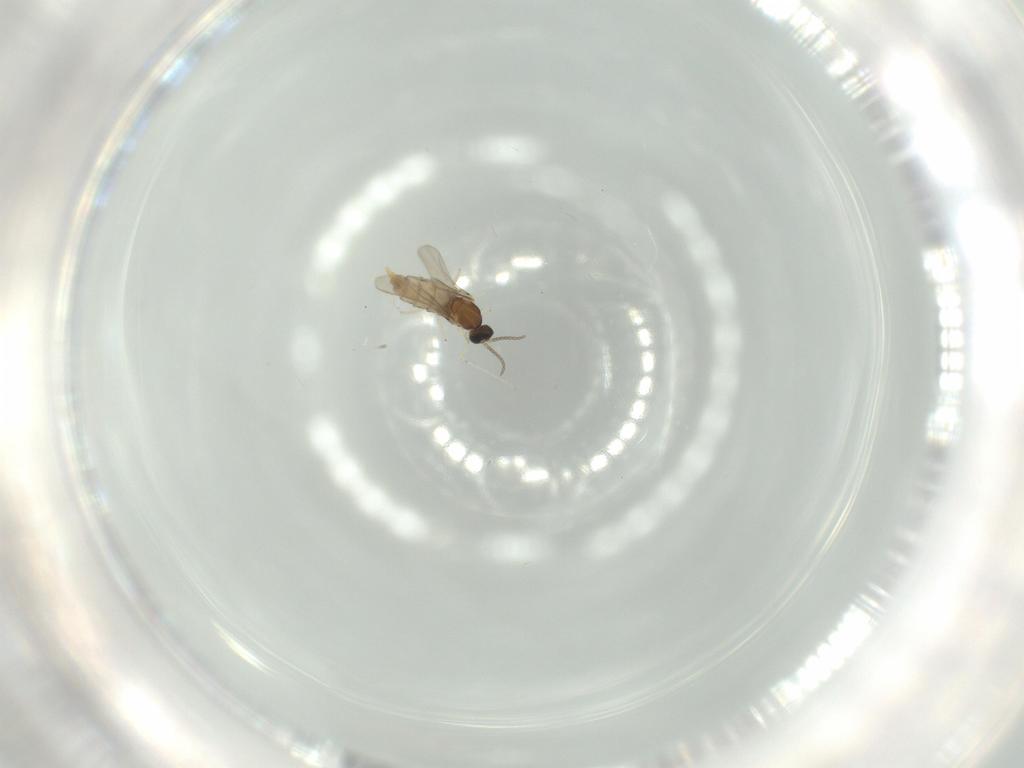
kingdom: Animalia
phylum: Arthropoda
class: Insecta
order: Diptera
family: Cecidomyiidae
